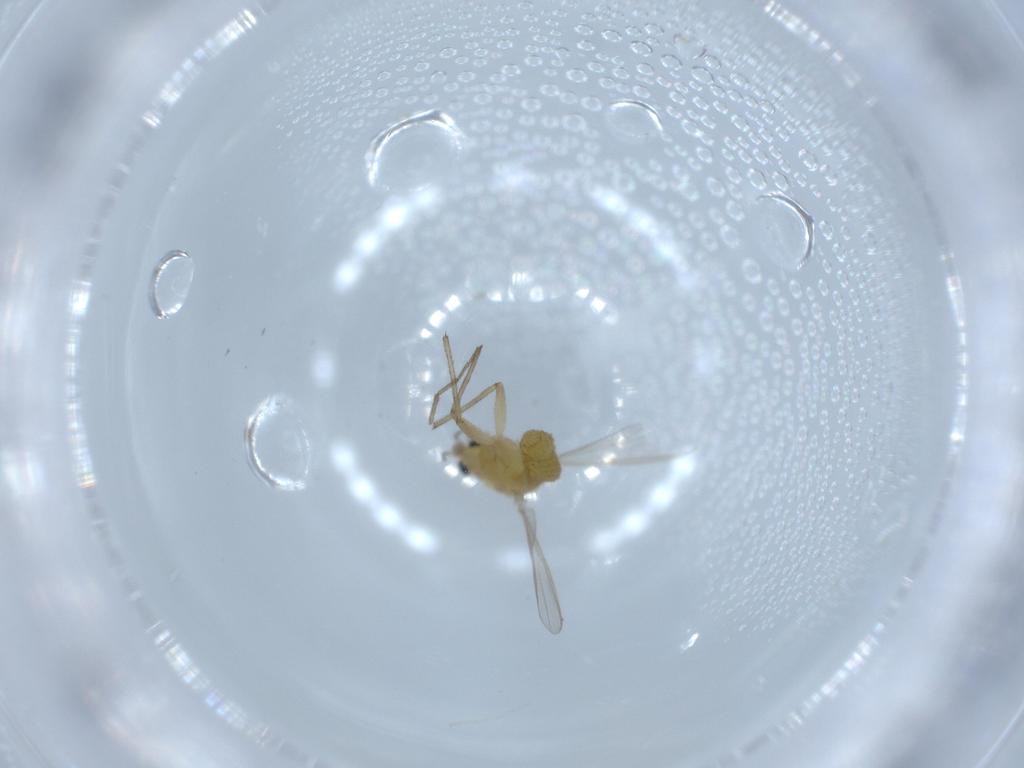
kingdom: Animalia
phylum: Arthropoda
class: Insecta
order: Diptera
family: Chironomidae
